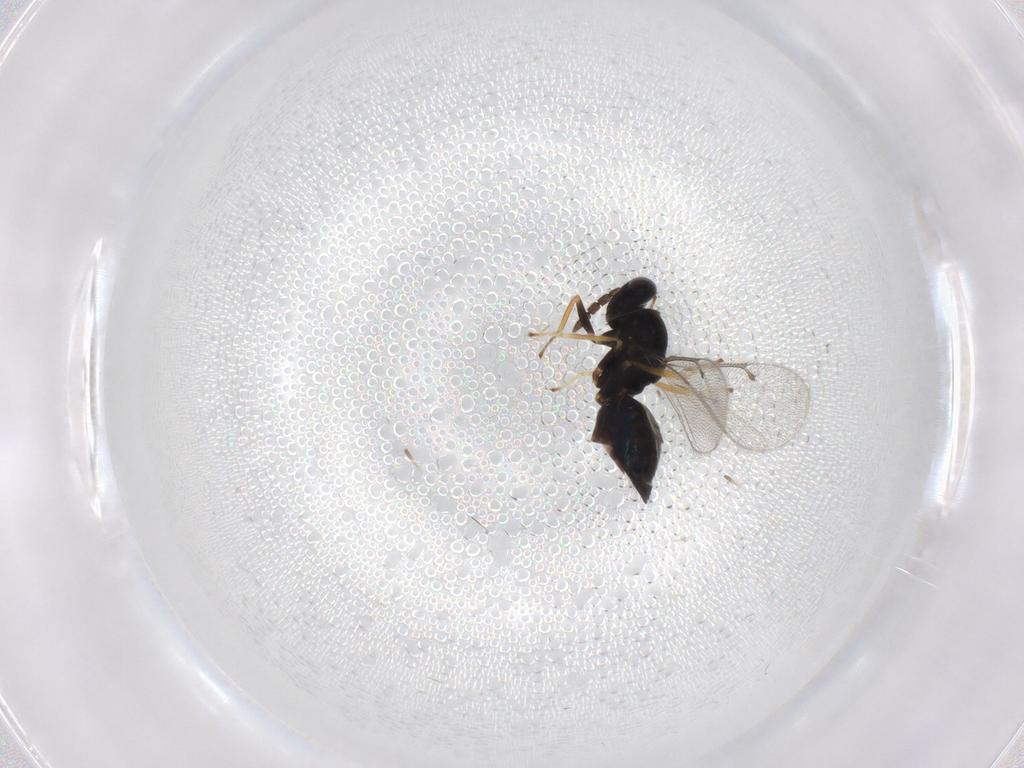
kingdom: Animalia
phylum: Arthropoda
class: Insecta
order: Hymenoptera
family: Eulophidae
